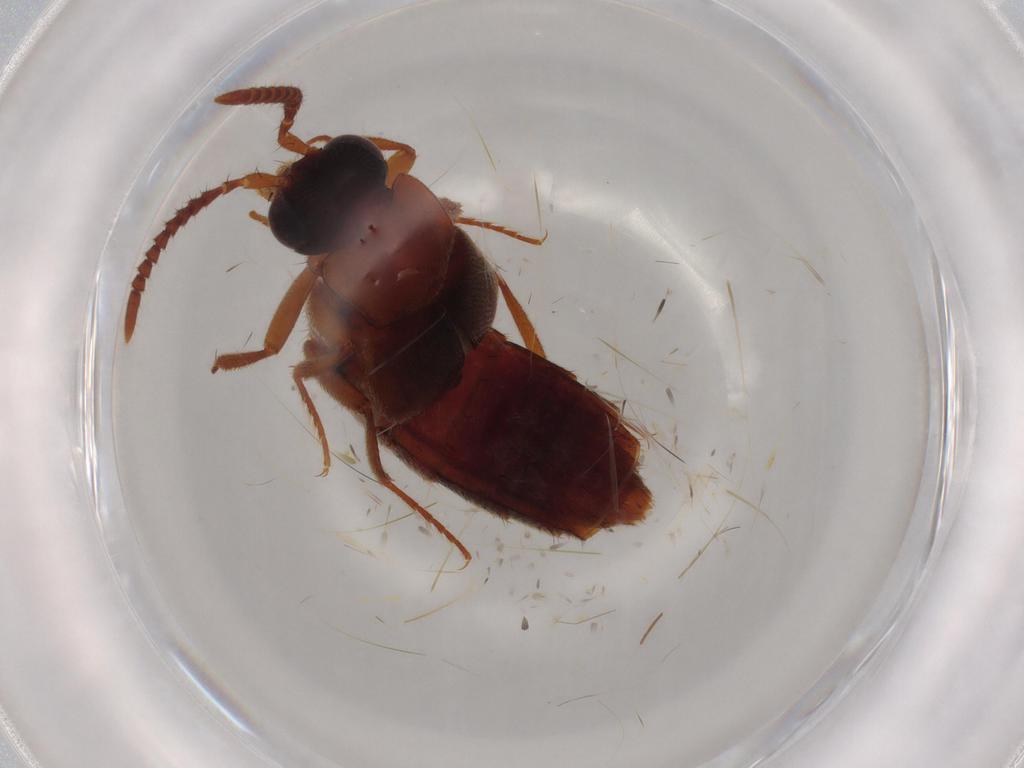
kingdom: Animalia
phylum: Arthropoda
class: Insecta
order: Coleoptera
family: Staphylinidae
